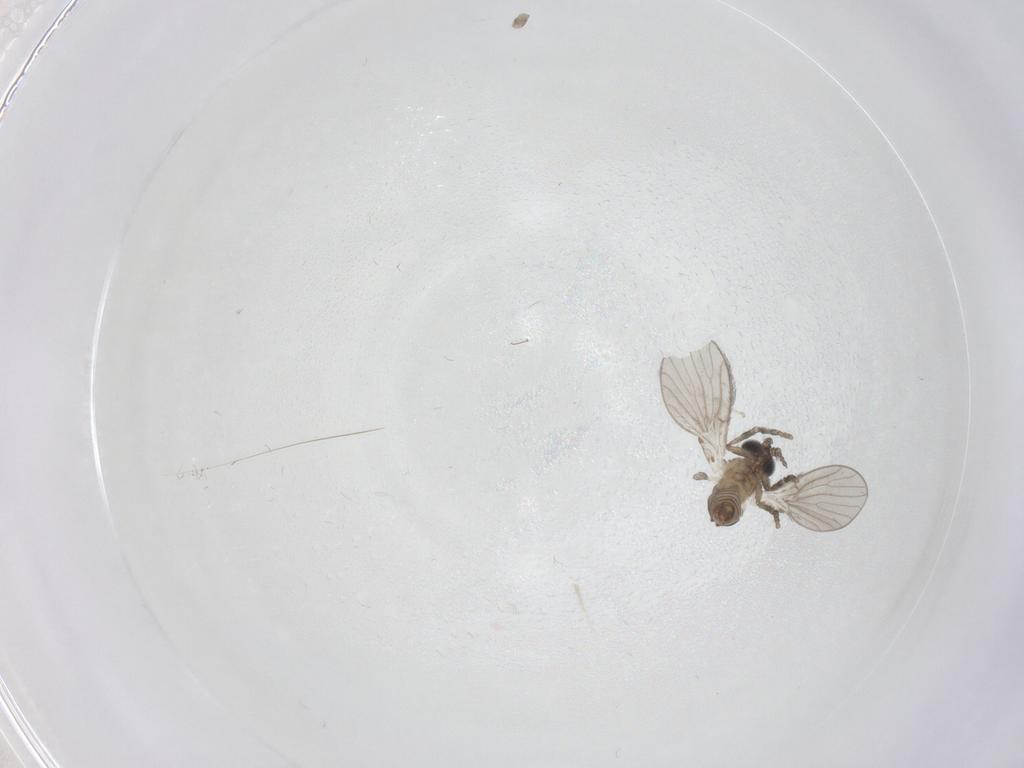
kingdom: Animalia
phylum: Arthropoda
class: Insecta
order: Diptera
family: Psychodidae
